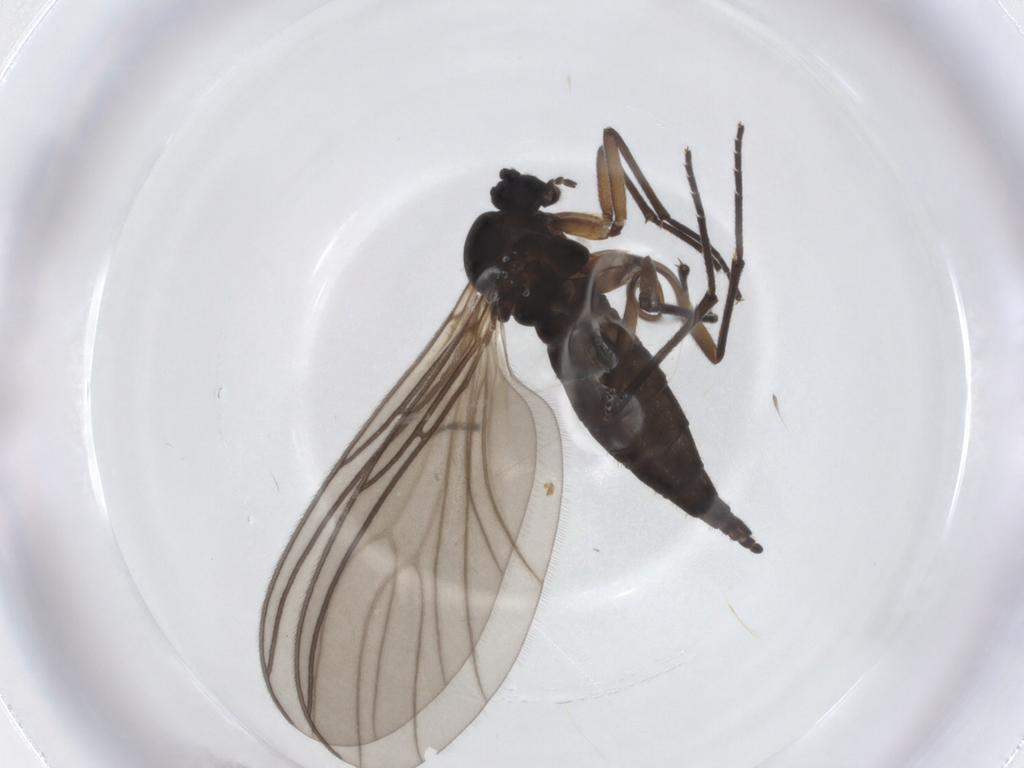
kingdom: Animalia
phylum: Arthropoda
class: Insecta
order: Diptera
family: Sciaridae
